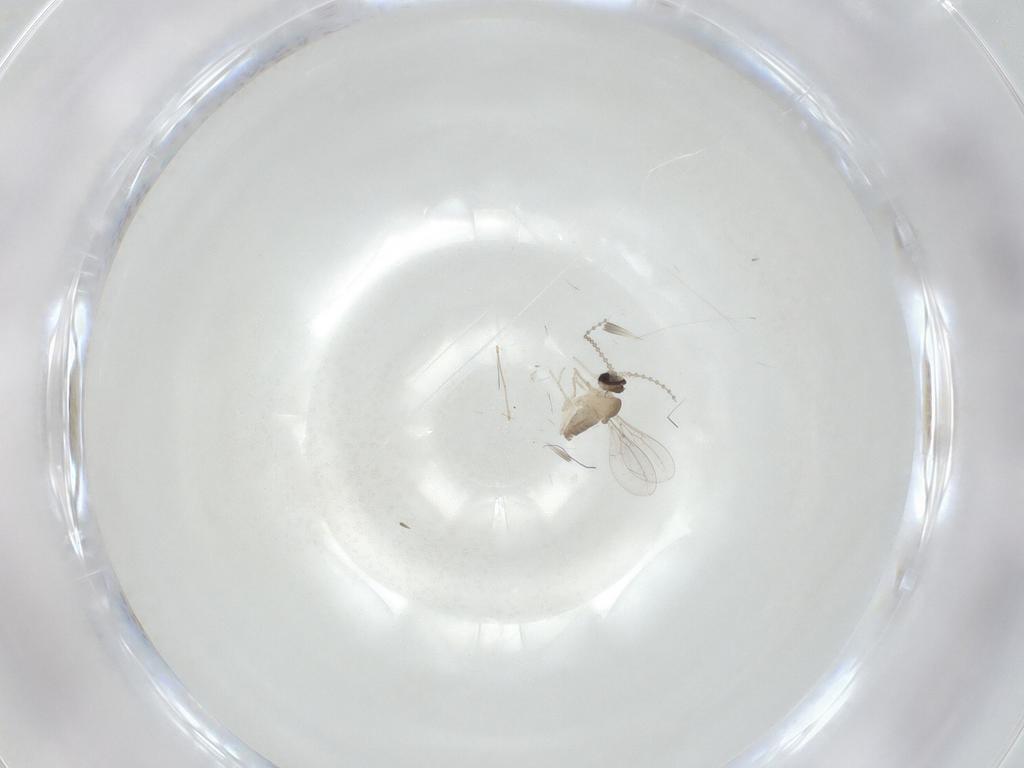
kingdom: Animalia
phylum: Arthropoda
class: Insecta
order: Diptera
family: Cecidomyiidae
